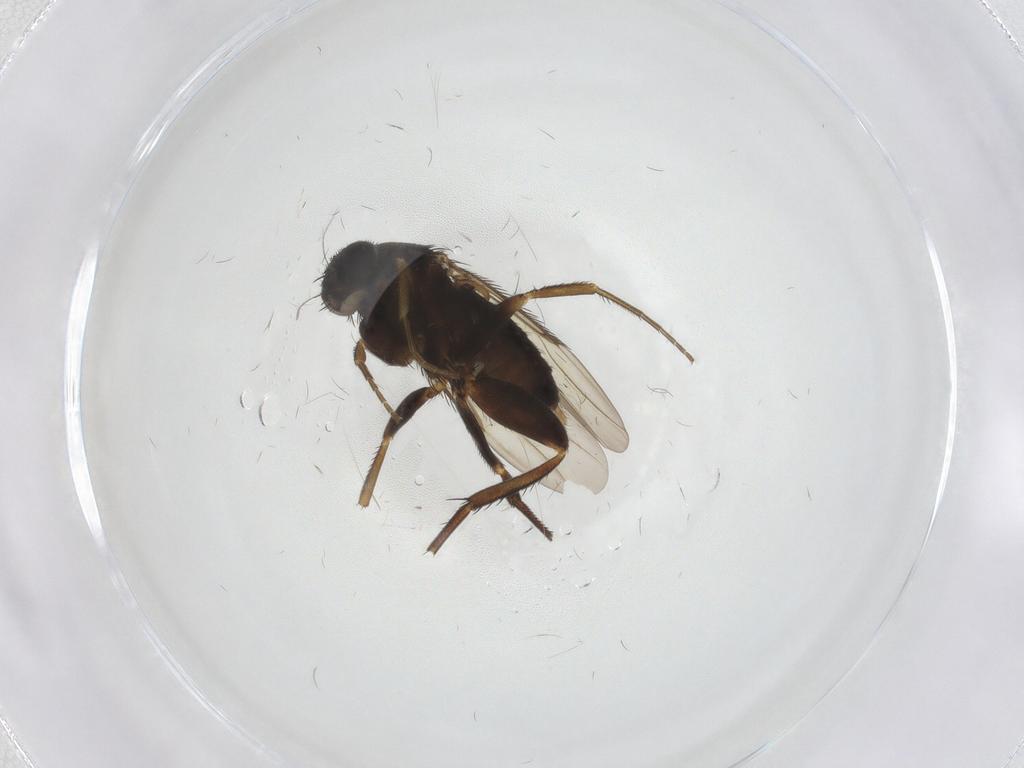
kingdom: Animalia
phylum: Arthropoda
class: Insecta
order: Diptera
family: Phoridae
